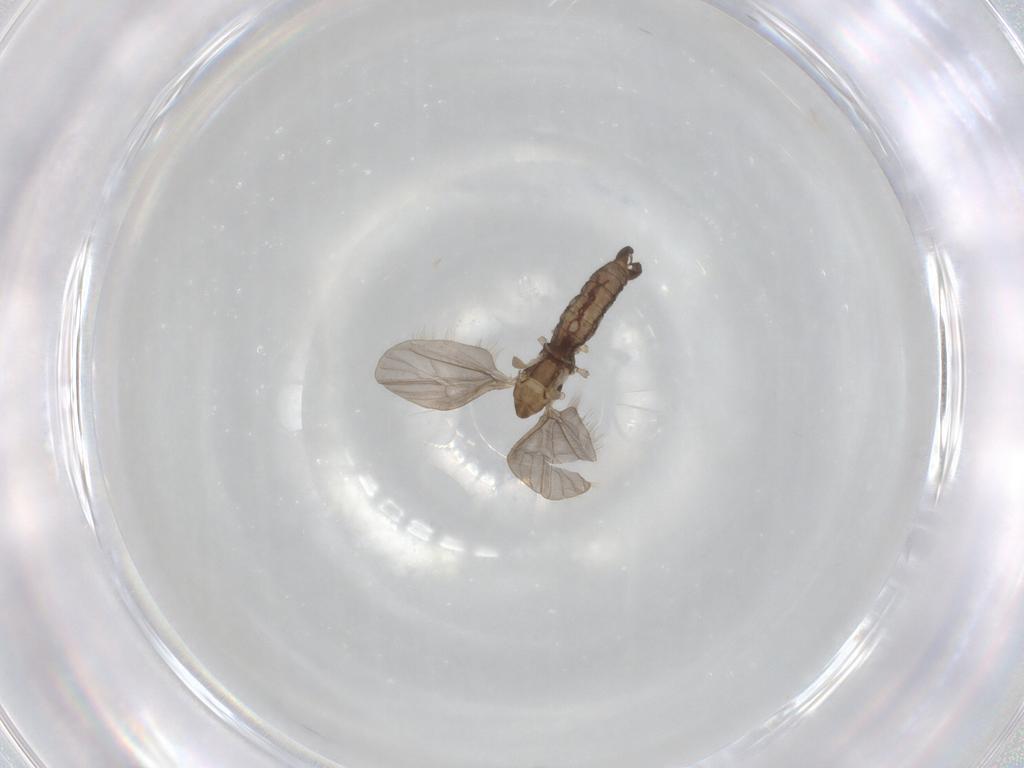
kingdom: Animalia
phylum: Arthropoda
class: Insecta
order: Diptera
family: Limoniidae
